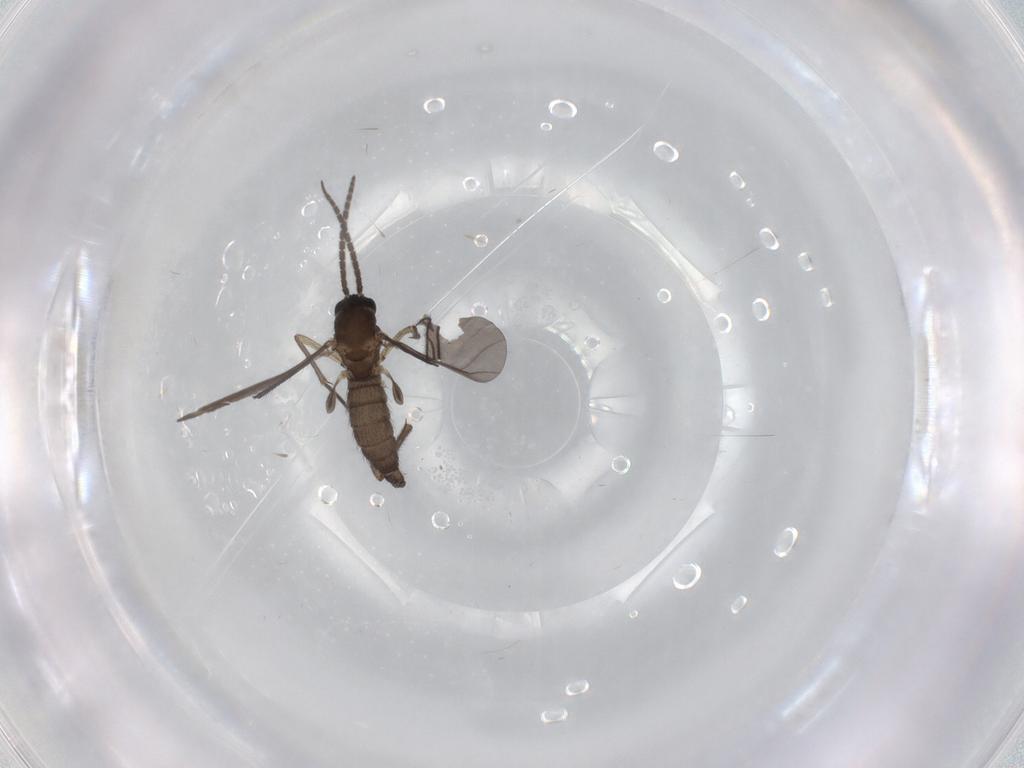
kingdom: Animalia
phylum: Arthropoda
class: Insecta
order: Diptera
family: Sciaridae
